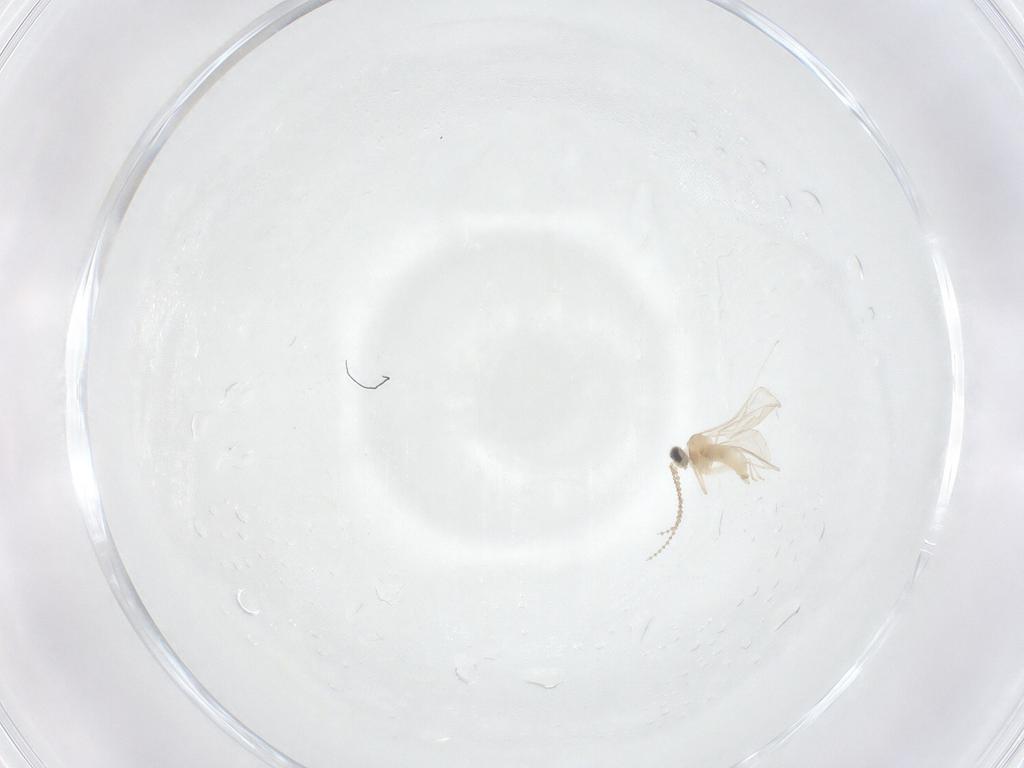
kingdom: Animalia
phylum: Arthropoda
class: Insecta
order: Diptera
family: Cecidomyiidae
